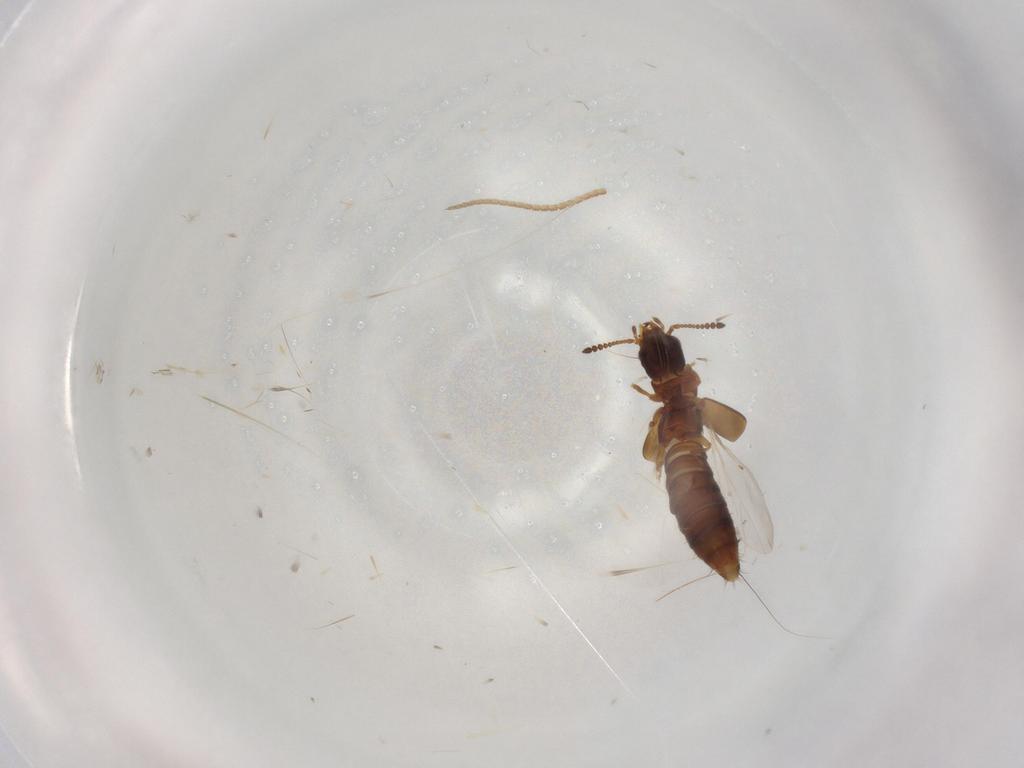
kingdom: Animalia
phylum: Arthropoda
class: Insecta
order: Coleoptera
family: Staphylinidae
